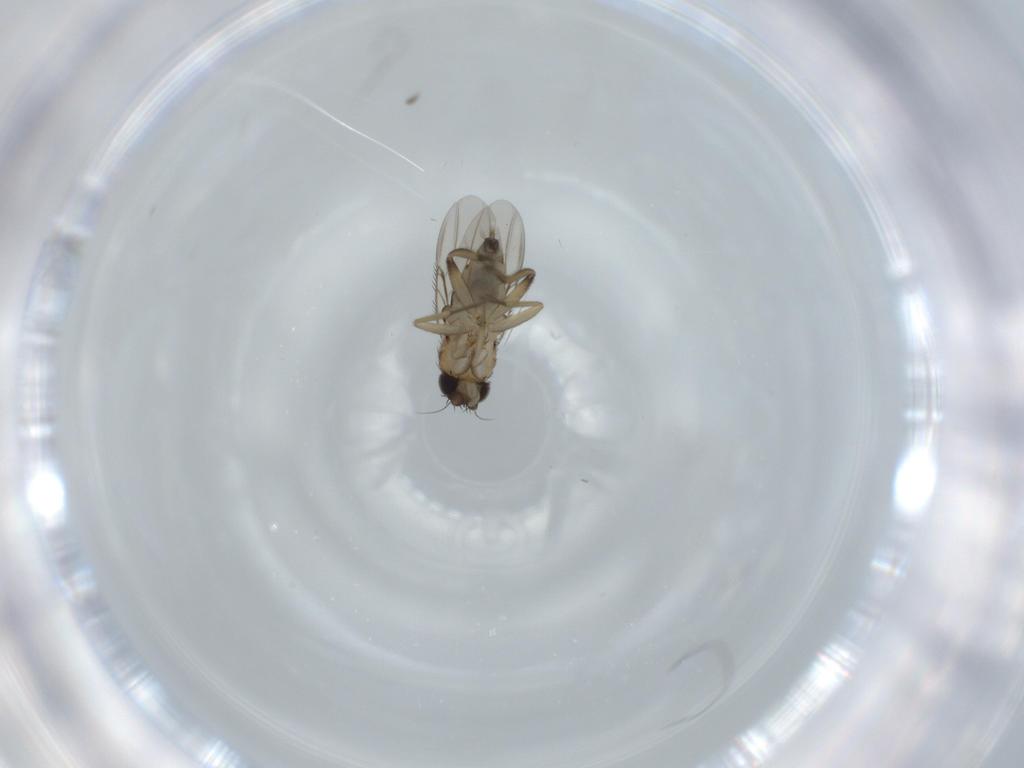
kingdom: Animalia
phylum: Arthropoda
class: Insecta
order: Diptera
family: Phoridae
